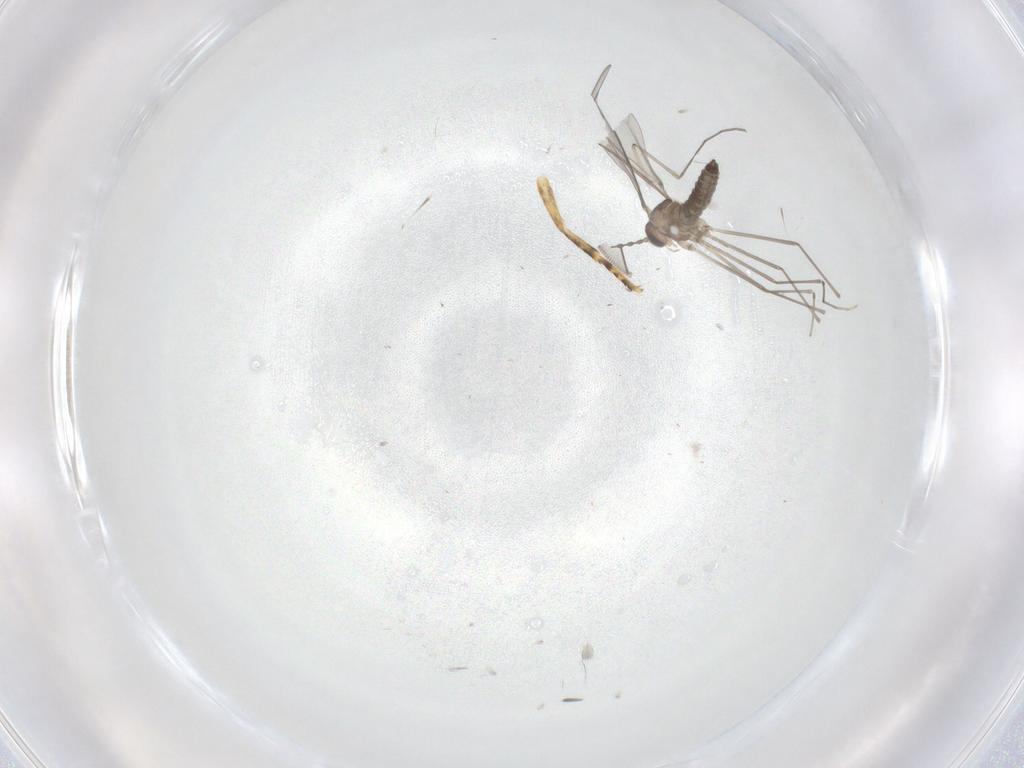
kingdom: Animalia
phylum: Arthropoda
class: Insecta
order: Diptera
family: Cecidomyiidae
